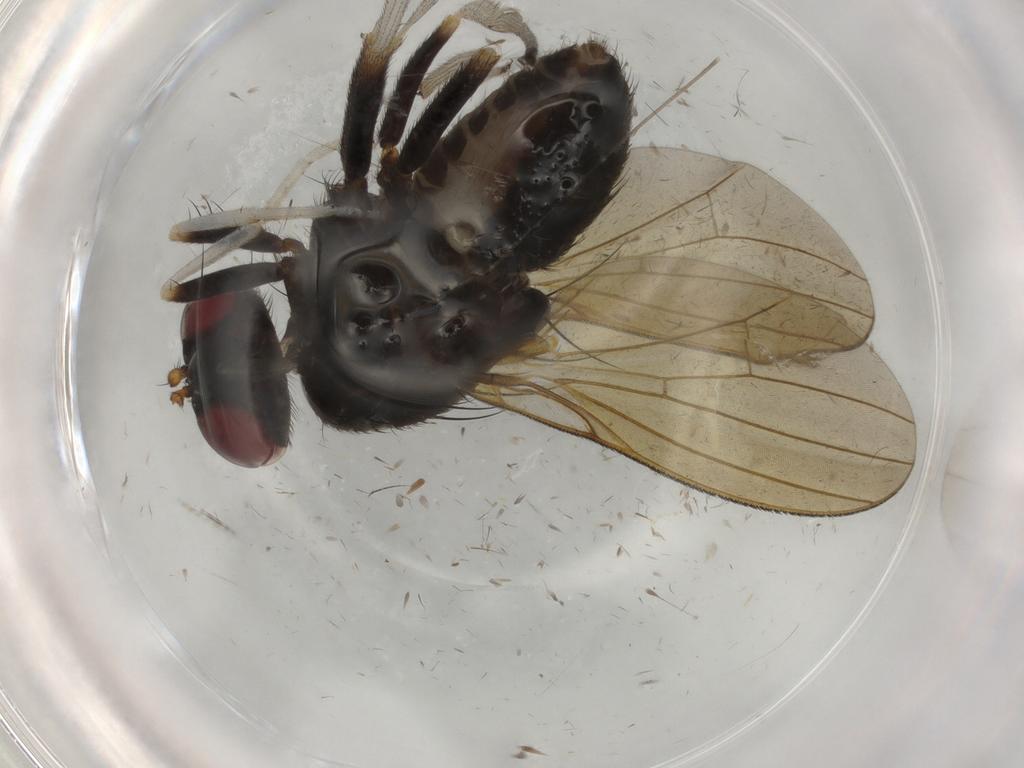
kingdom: Animalia
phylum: Arthropoda
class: Insecta
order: Diptera
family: Lauxaniidae
